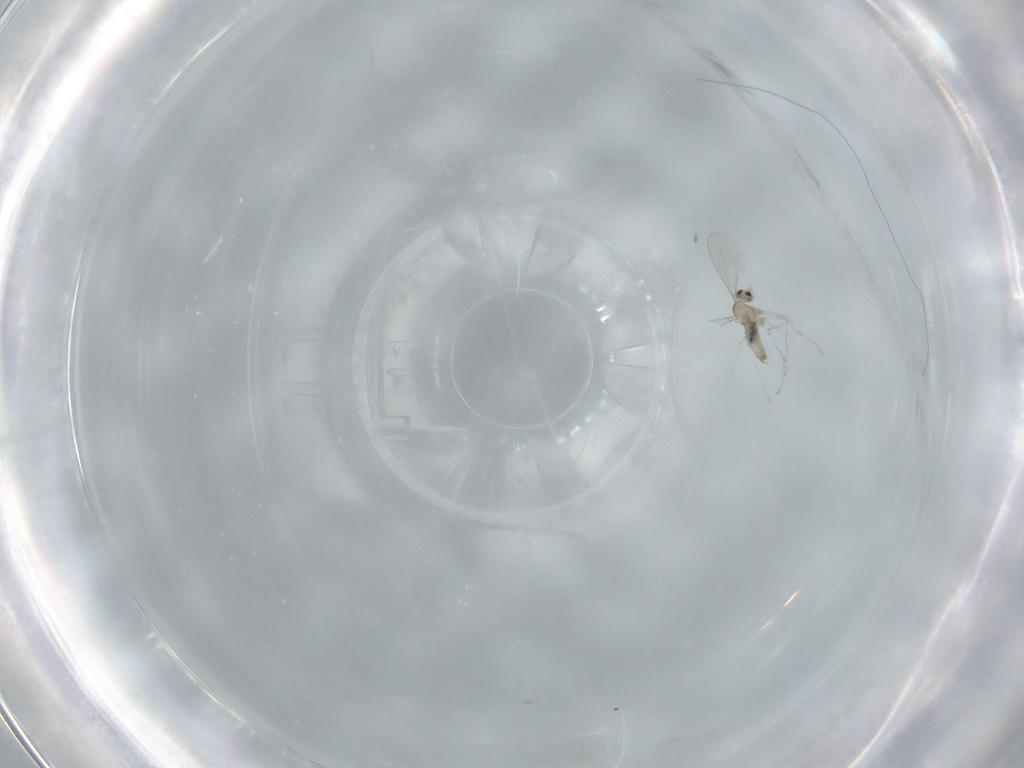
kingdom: Animalia
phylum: Arthropoda
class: Insecta
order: Diptera
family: Cecidomyiidae
